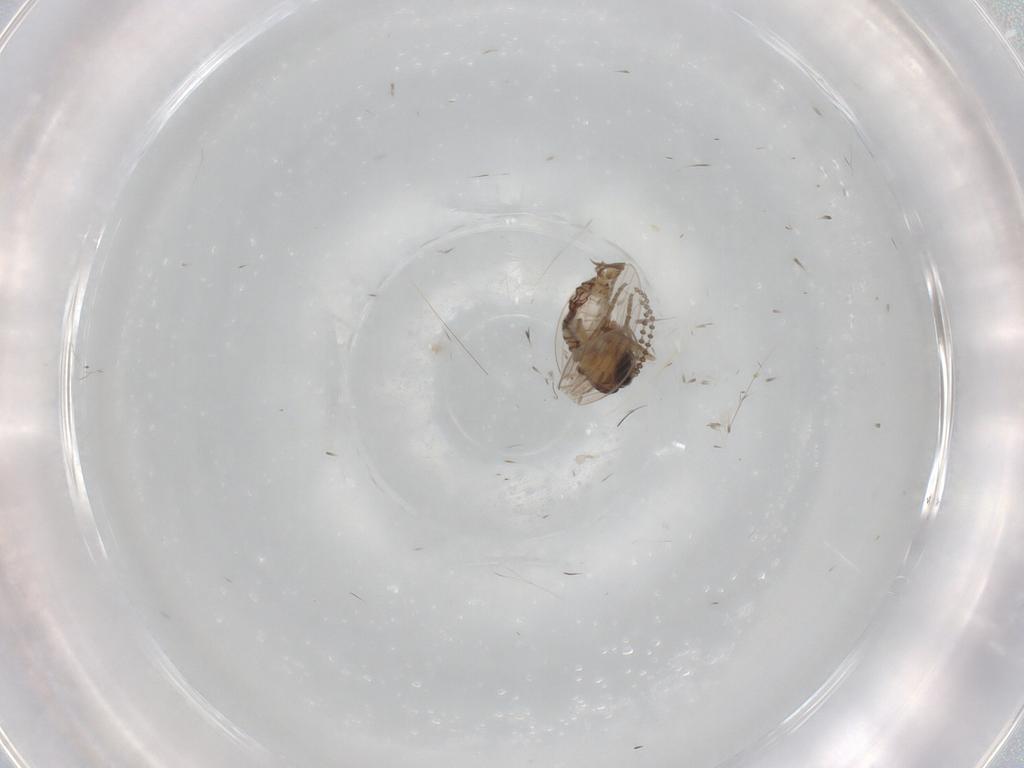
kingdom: Animalia
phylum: Arthropoda
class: Insecta
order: Diptera
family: Psychodidae
